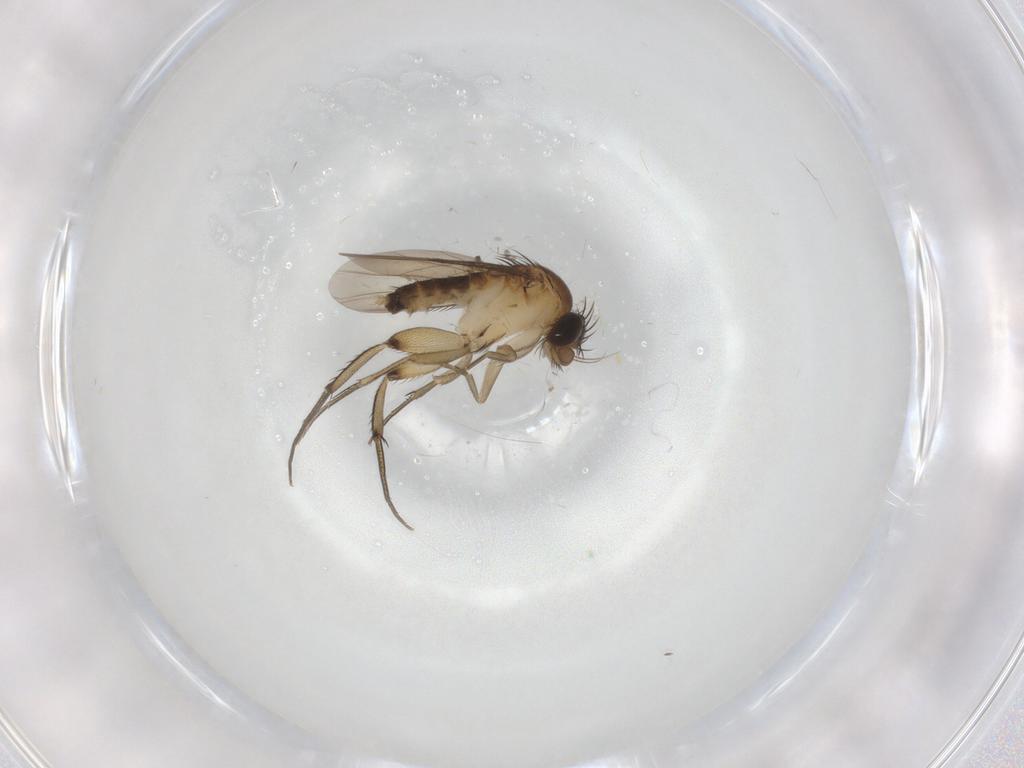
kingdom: Animalia
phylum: Arthropoda
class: Insecta
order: Diptera
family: Phoridae
